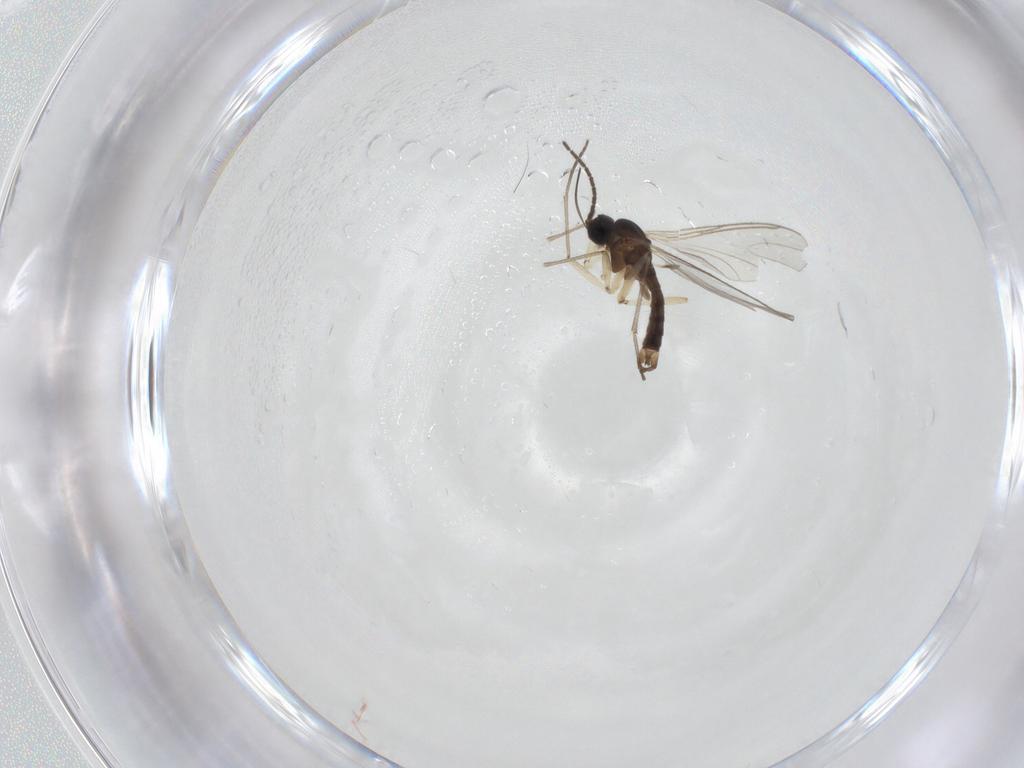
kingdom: Animalia
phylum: Arthropoda
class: Insecta
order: Diptera
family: Sciaridae
